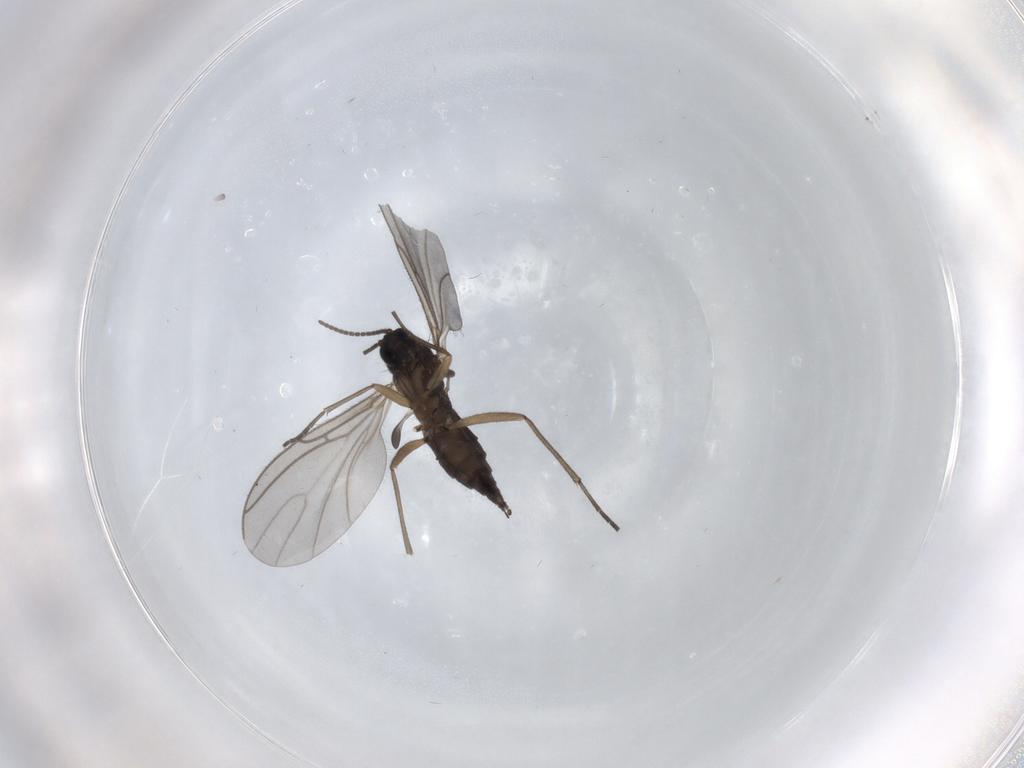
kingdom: Animalia
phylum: Arthropoda
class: Insecta
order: Diptera
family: Sciaridae
